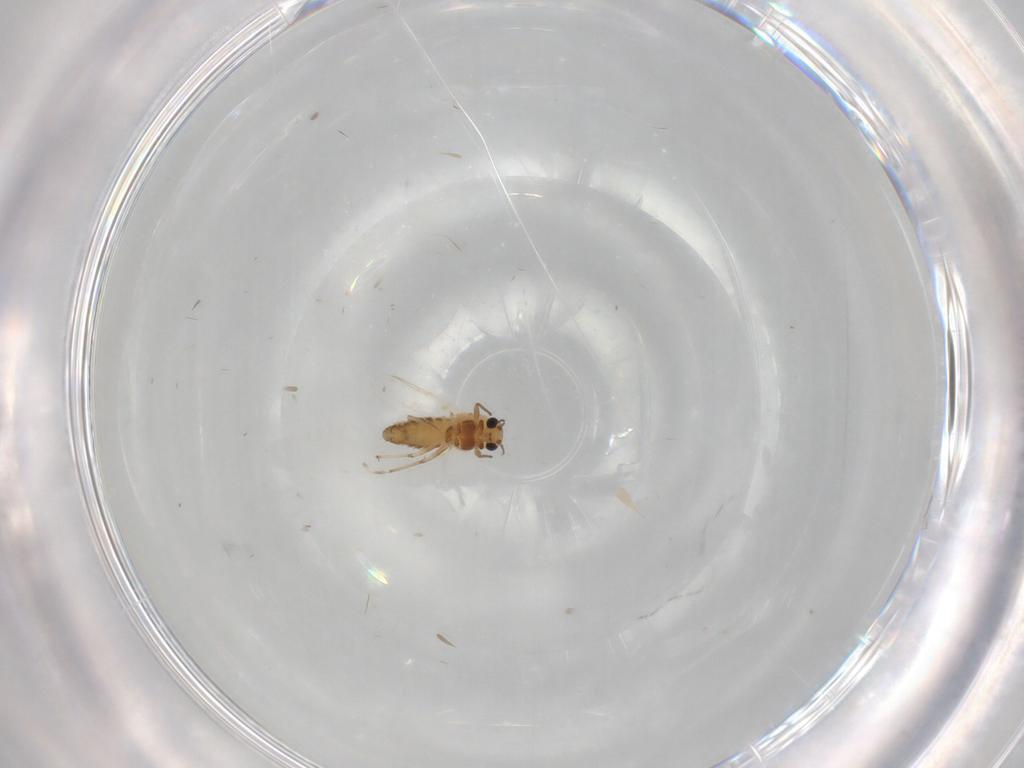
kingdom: Animalia
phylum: Arthropoda
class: Insecta
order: Diptera
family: Chironomidae
